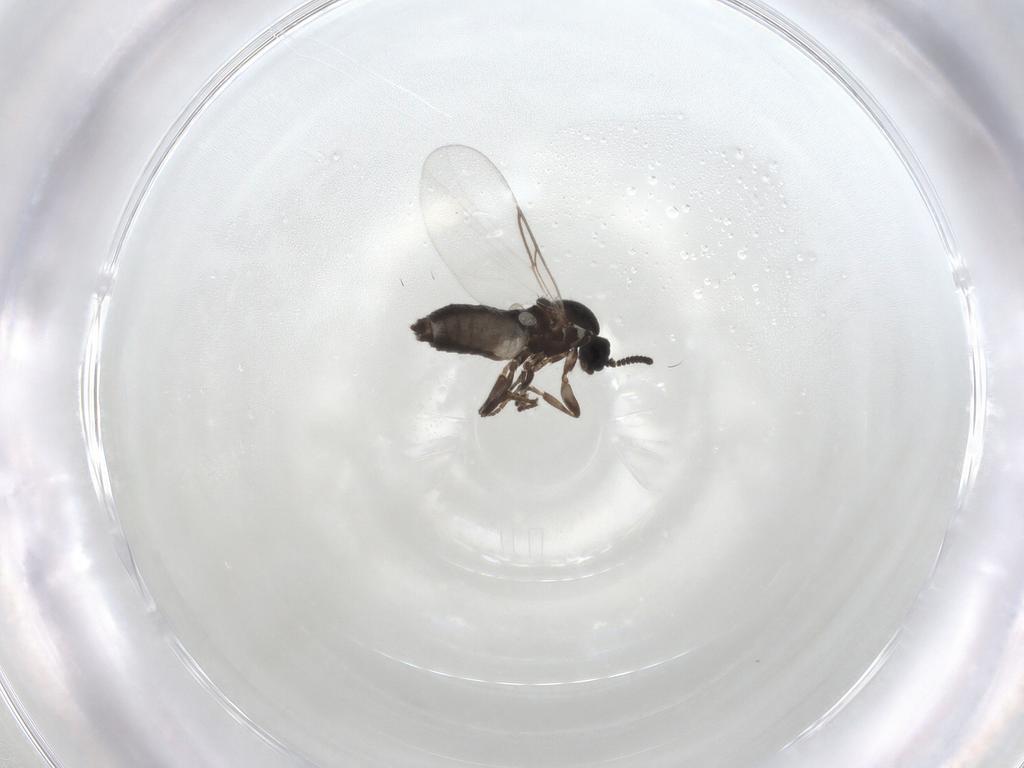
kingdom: Animalia
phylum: Arthropoda
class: Insecta
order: Diptera
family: Scatopsidae
